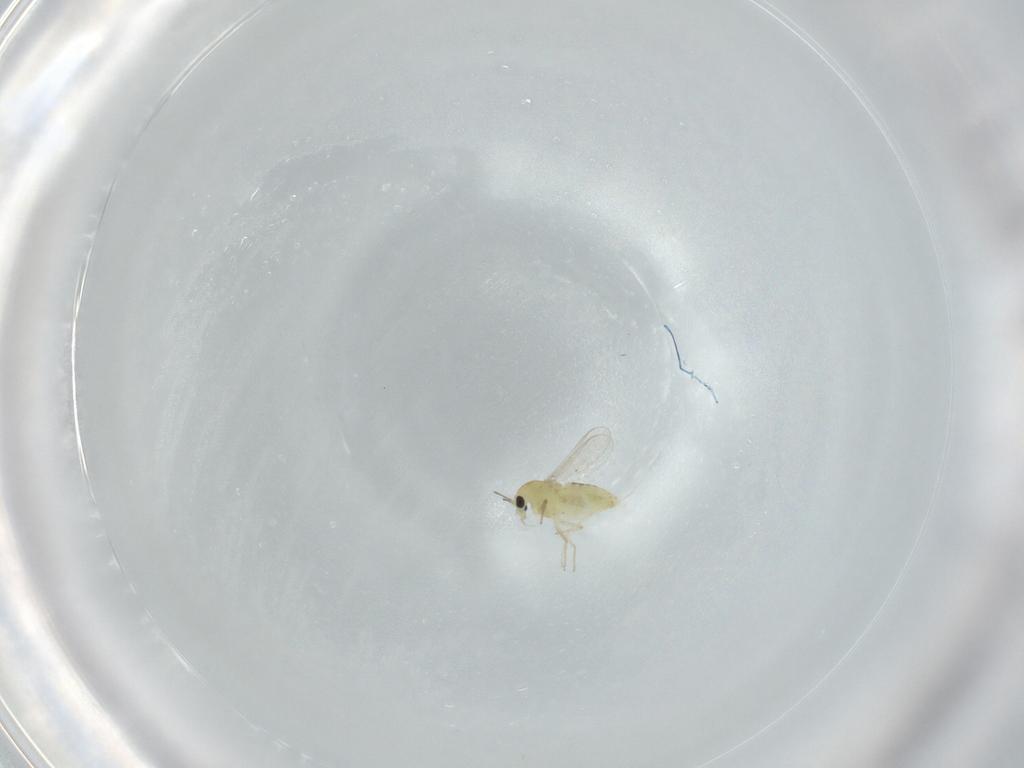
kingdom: Animalia
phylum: Arthropoda
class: Insecta
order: Diptera
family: Chironomidae
